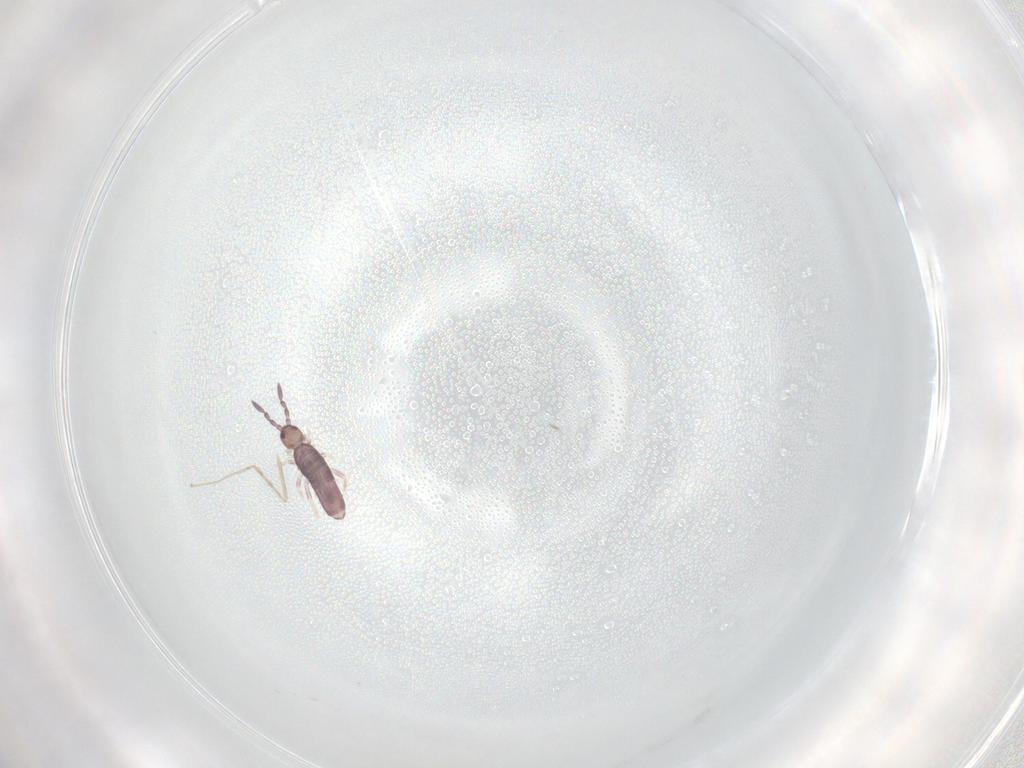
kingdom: Animalia
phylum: Arthropoda
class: Collembola
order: Entomobryomorpha
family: Entomobryidae
